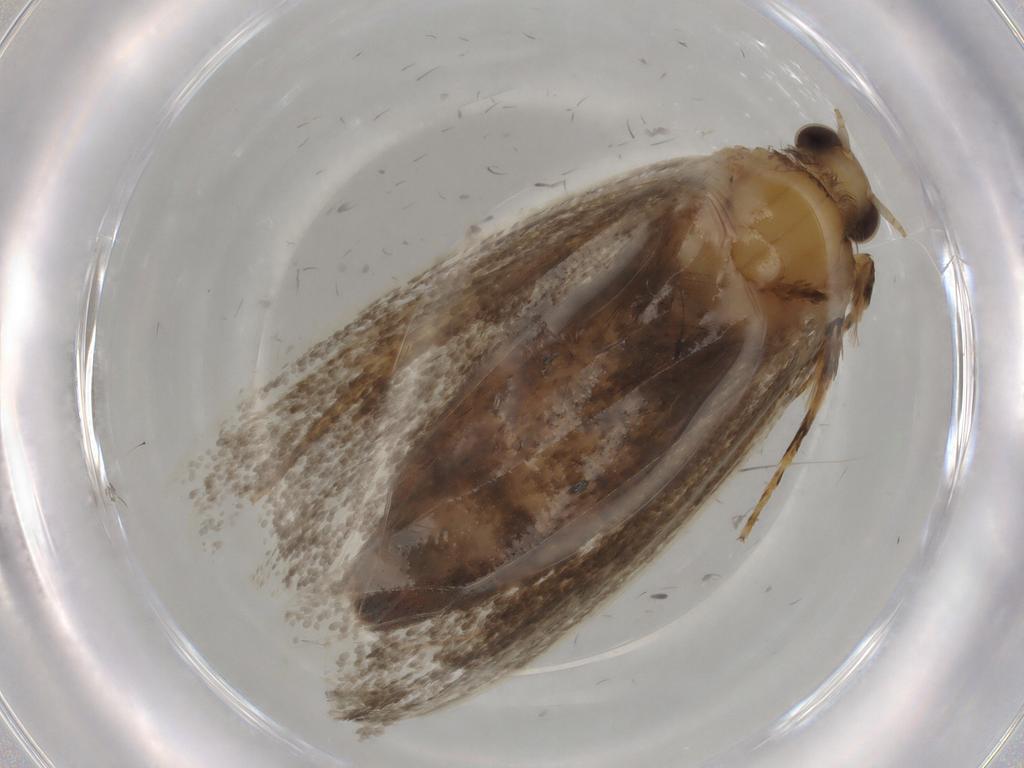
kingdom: Animalia
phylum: Arthropoda
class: Insecta
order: Lepidoptera
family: Tineidae
